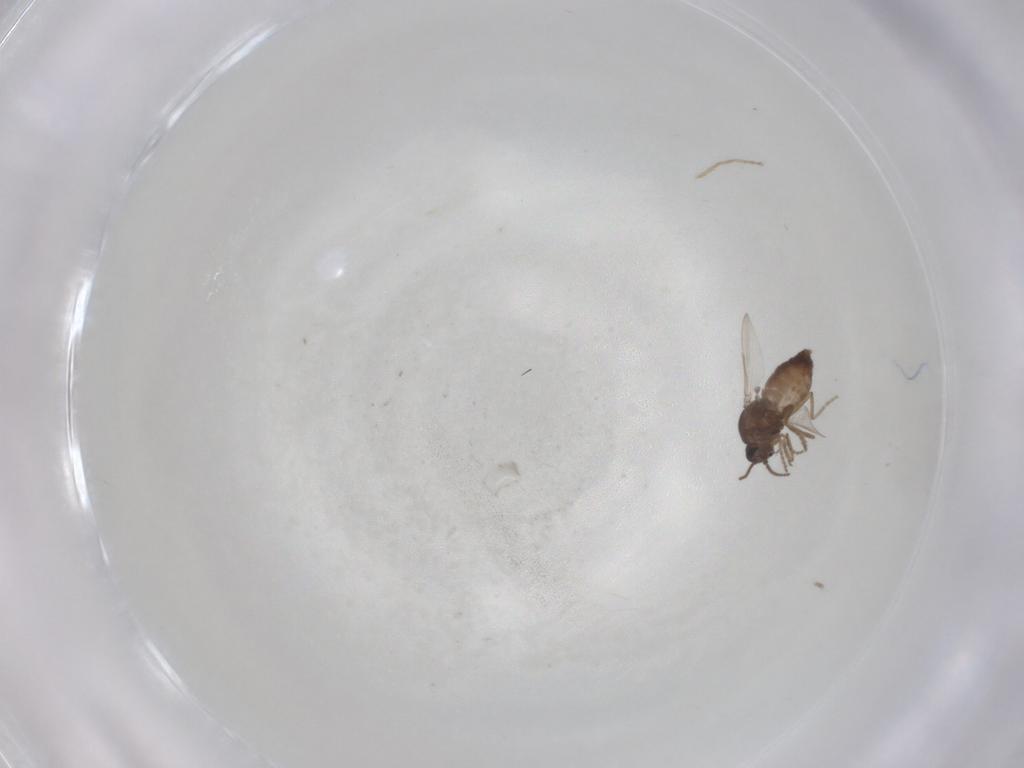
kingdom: Animalia
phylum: Arthropoda
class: Insecta
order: Diptera
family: Ceratopogonidae
